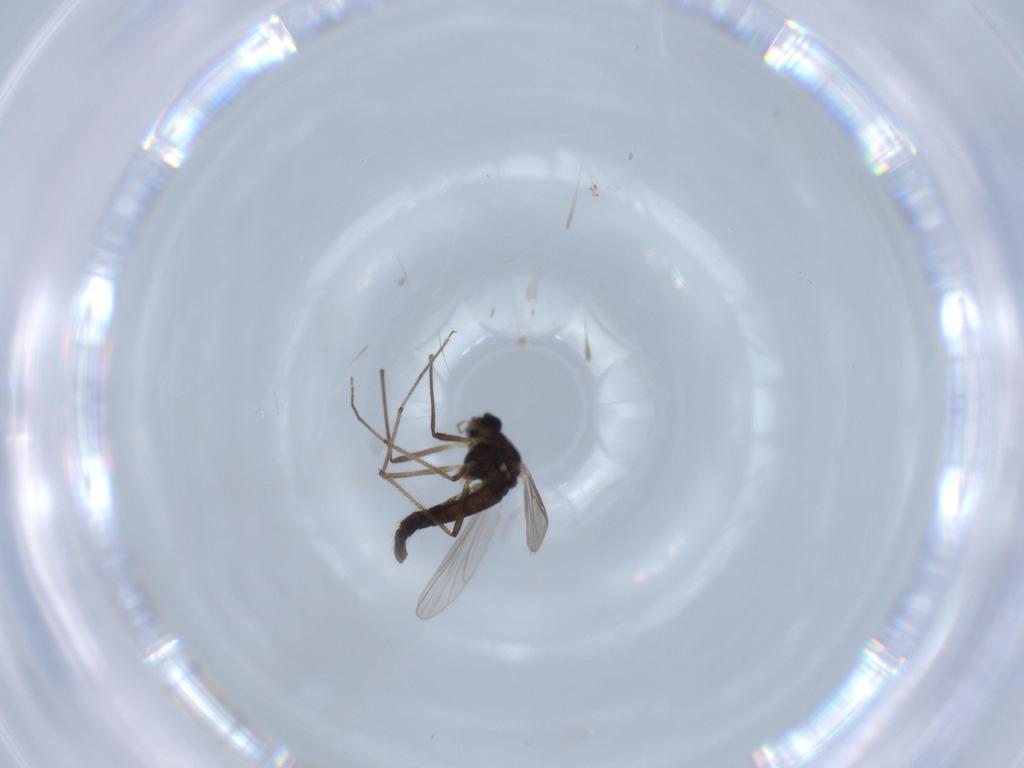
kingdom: Animalia
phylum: Arthropoda
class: Insecta
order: Diptera
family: Chironomidae
